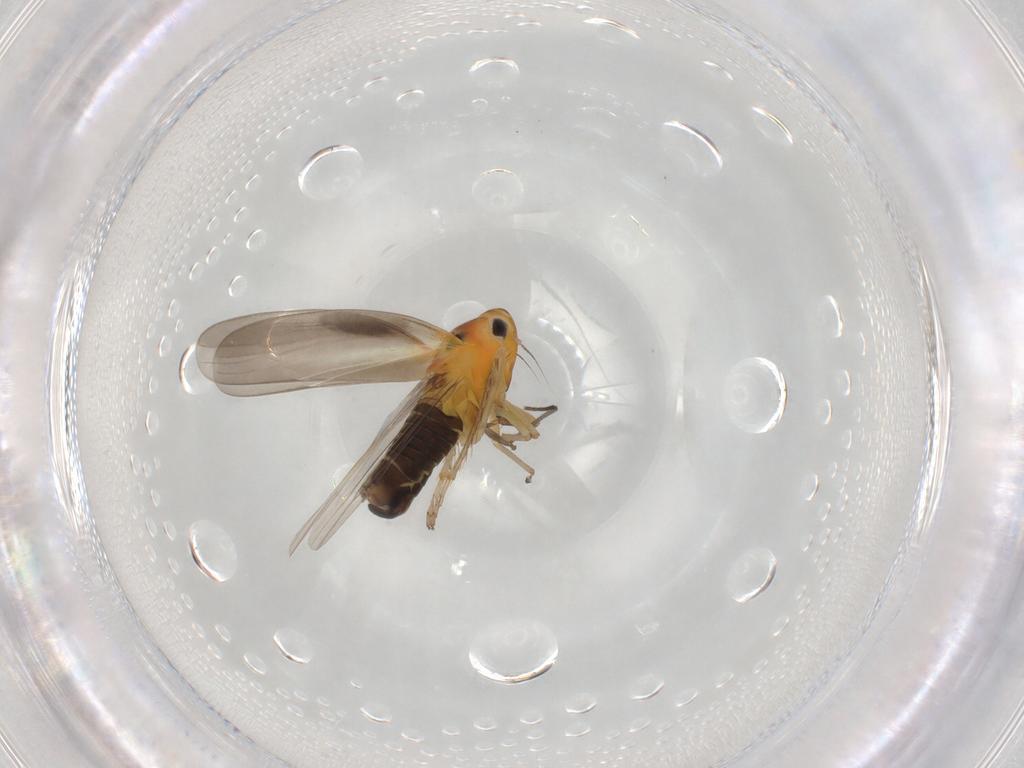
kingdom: Animalia
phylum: Arthropoda
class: Insecta
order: Hemiptera
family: Cicadellidae
